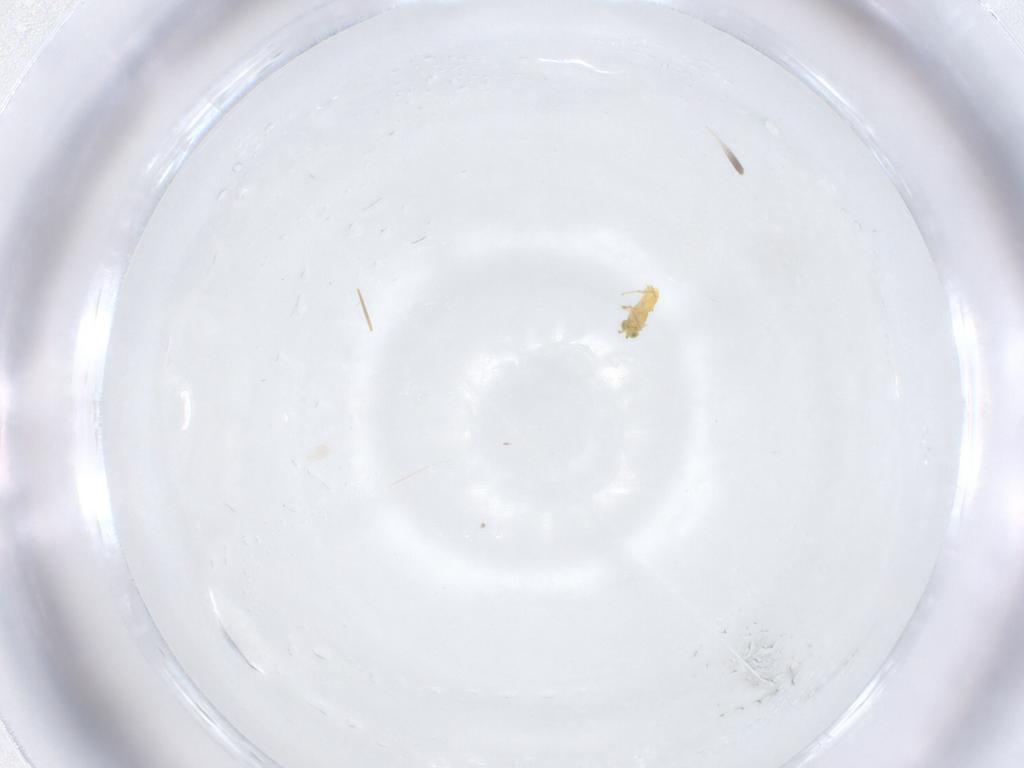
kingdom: Animalia
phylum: Arthropoda
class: Insecta
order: Hymenoptera
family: Aphelinidae
